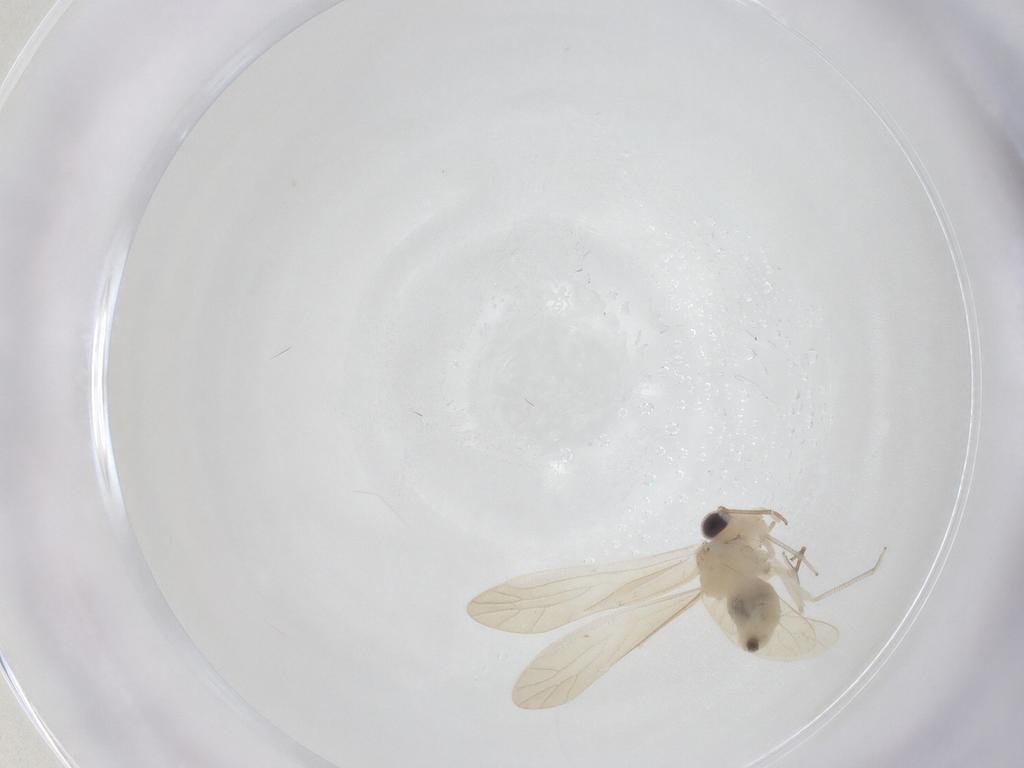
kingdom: Animalia
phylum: Arthropoda
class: Insecta
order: Psocodea
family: Caeciliusidae
